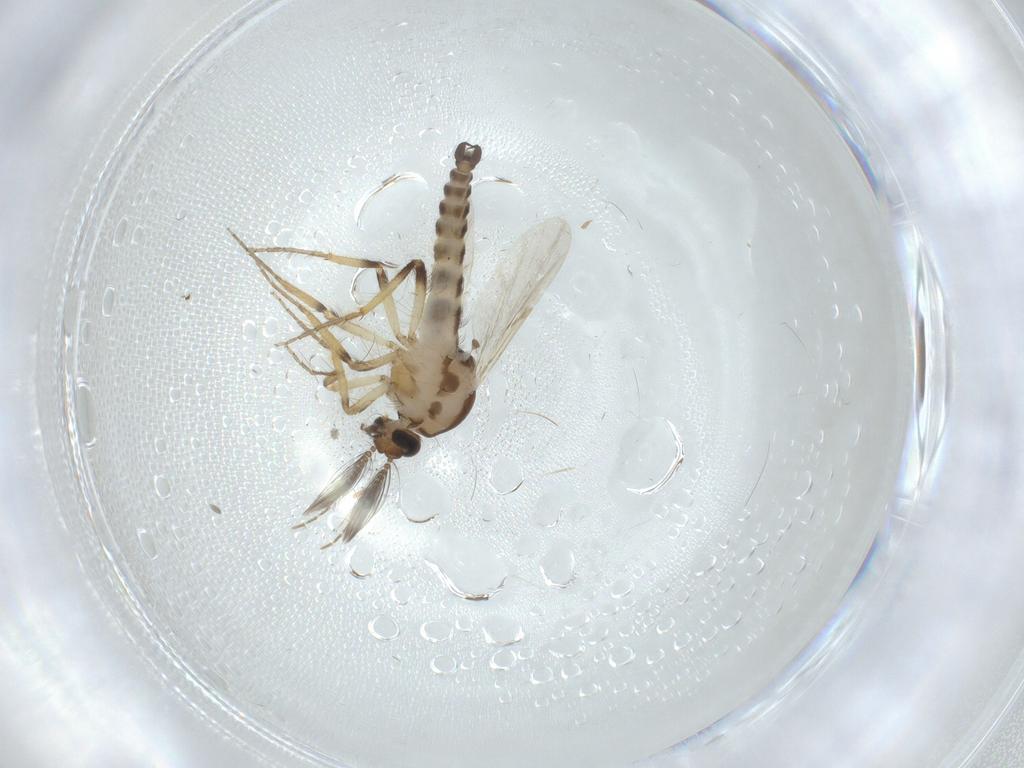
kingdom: Animalia
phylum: Arthropoda
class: Insecta
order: Diptera
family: Ceratopogonidae
